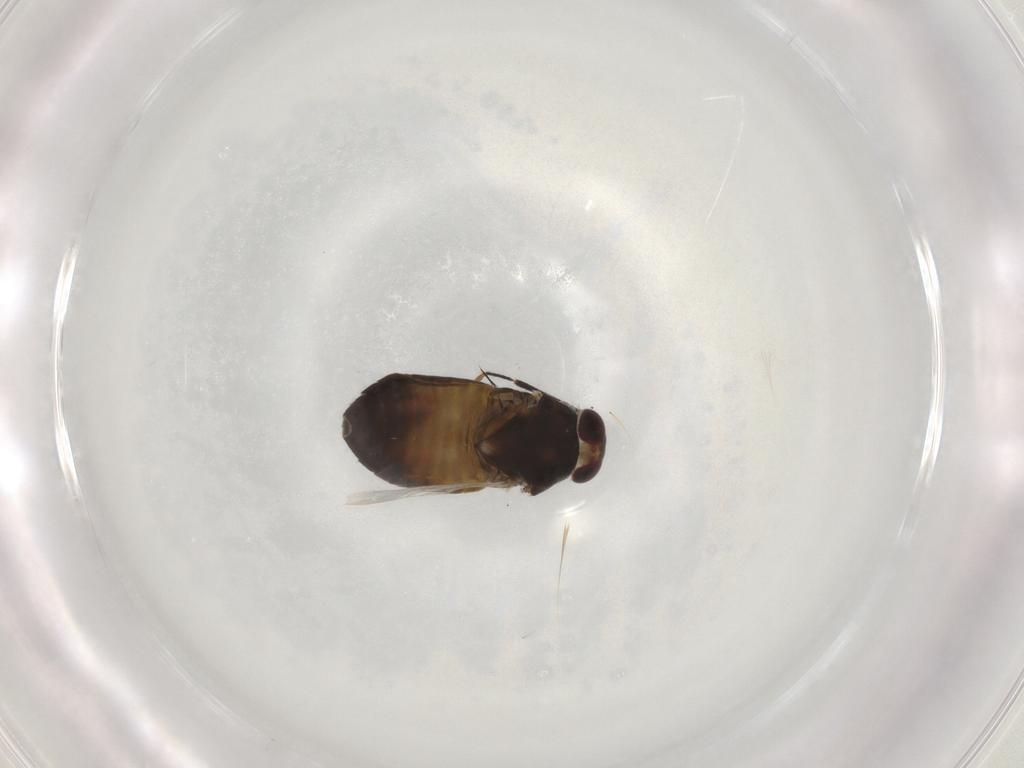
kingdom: Animalia
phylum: Arthropoda
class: Insecta
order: Hemiptera
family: Miridae
